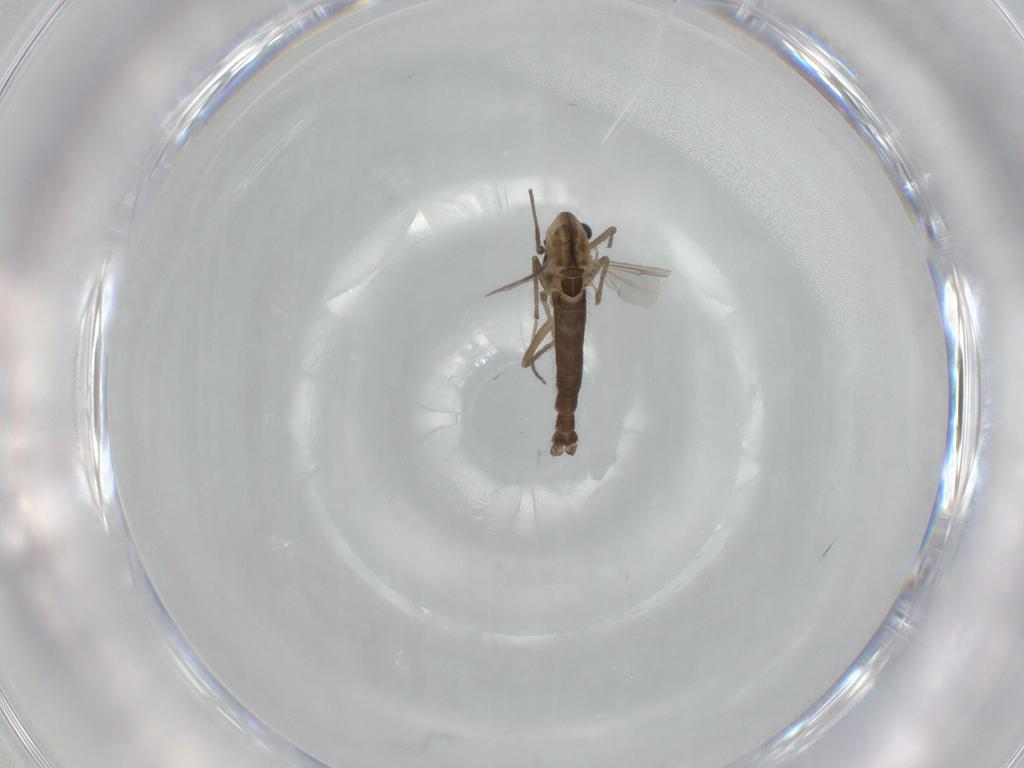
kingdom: Animalia
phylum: Arthropoda
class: Insecta
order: Diptera
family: Chironomidae
